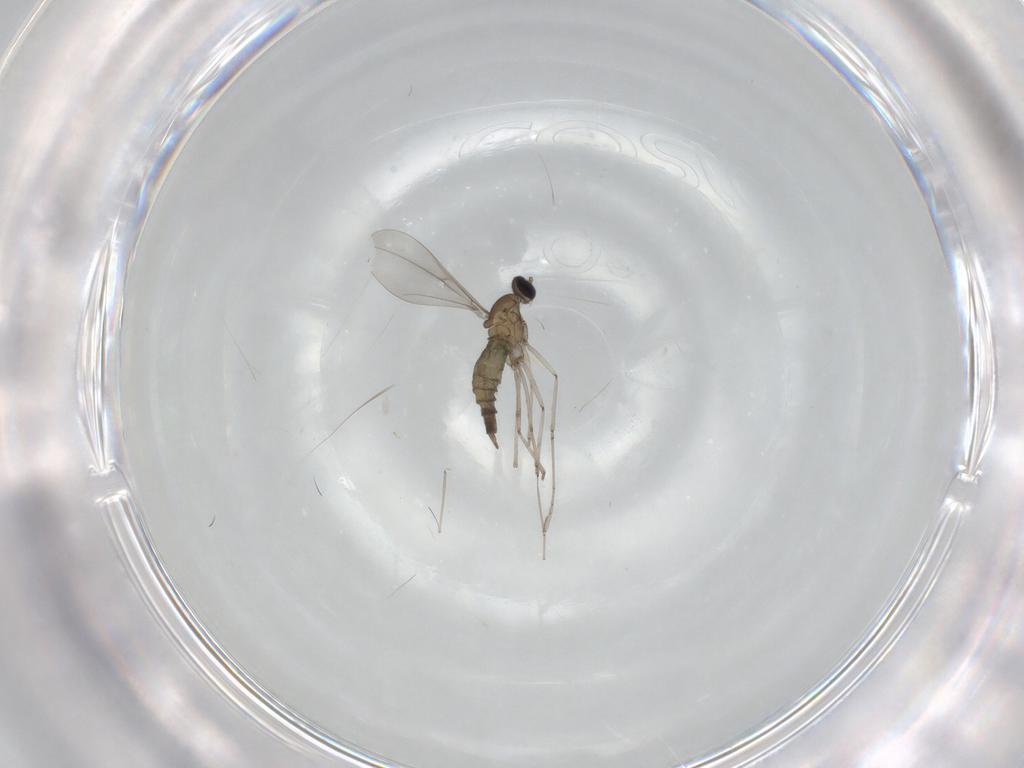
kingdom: Animalia
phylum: Arthropoda
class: Insecta
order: Diptera
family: Cecidomyiidae
